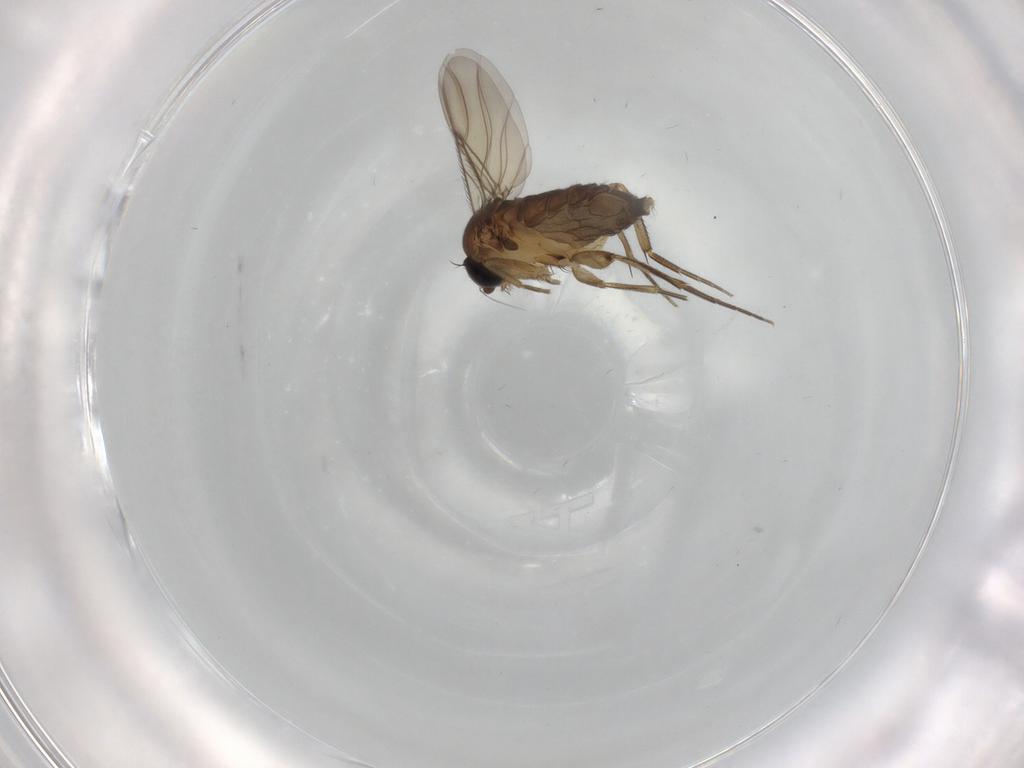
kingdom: Animalia
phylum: Arthropoda
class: Insecta
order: Diptera
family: Phoridae
